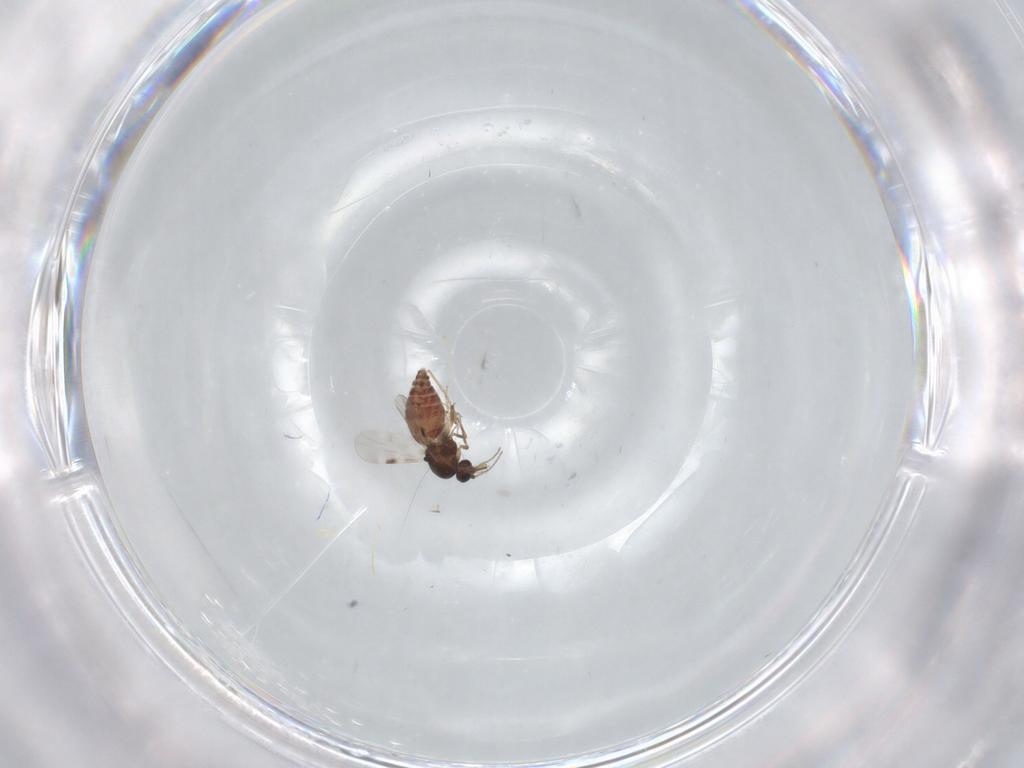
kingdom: Animalia
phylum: Arthropoda
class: Insecta
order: Diptera
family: Chironomidae
